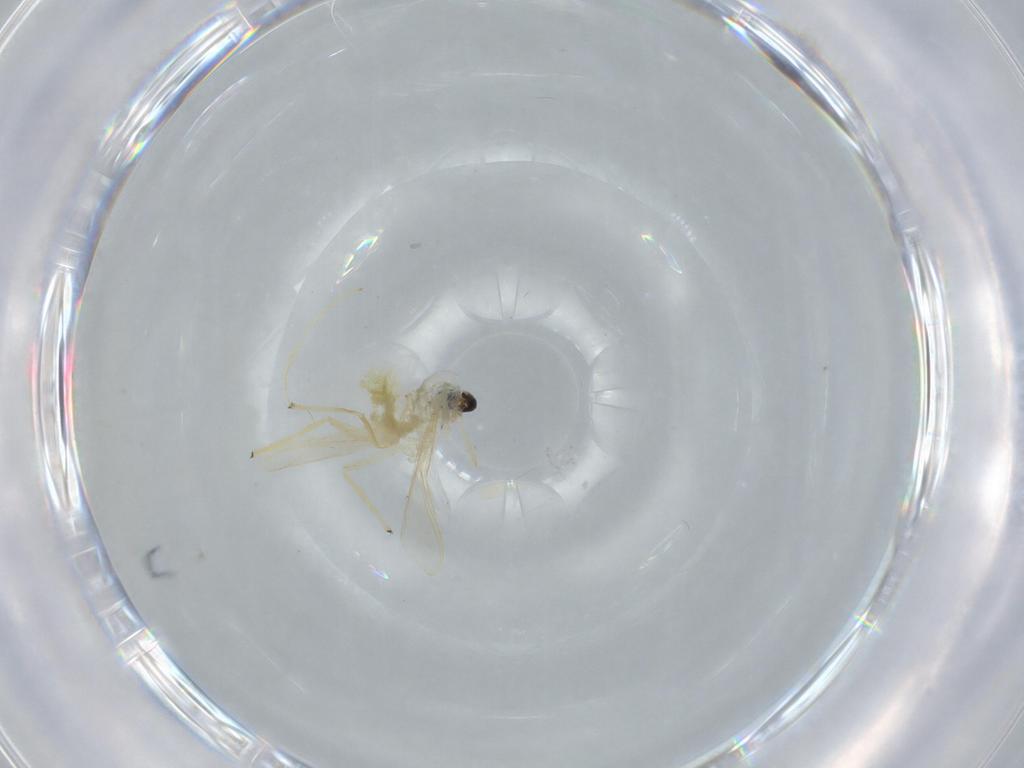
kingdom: Animalia
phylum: Arthropoda
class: Insecta
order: Diptera
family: Chironomidae
